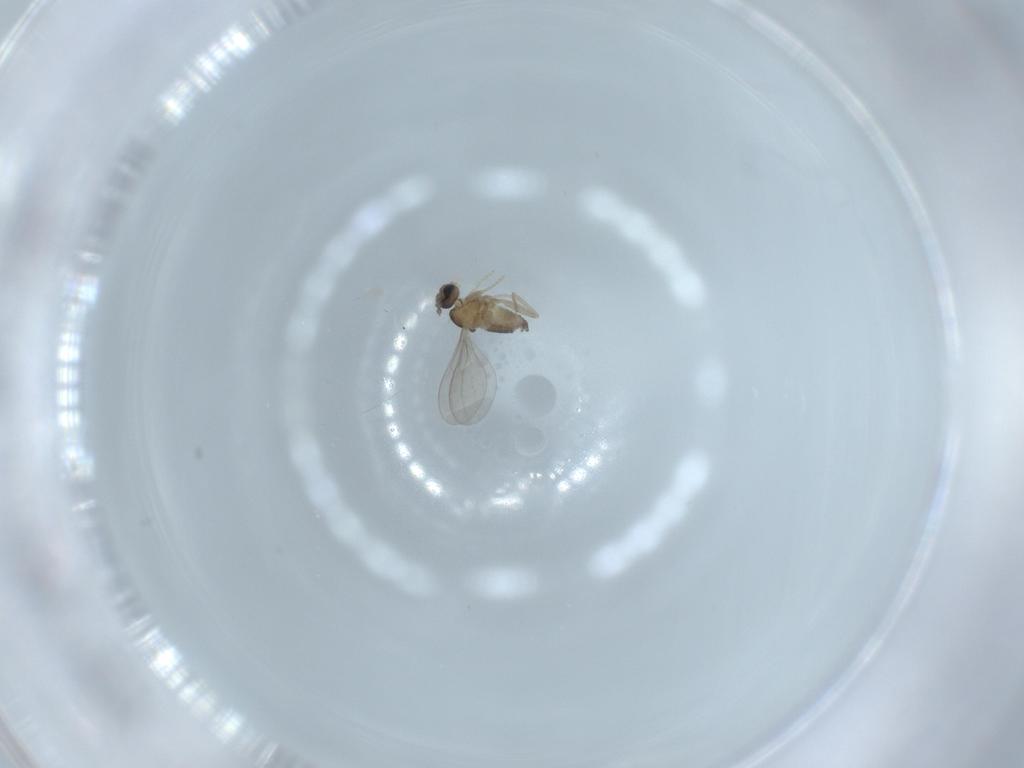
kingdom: Animalia
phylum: Arthropoda
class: Insecta
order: Diptera
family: Cecidomyiidae
